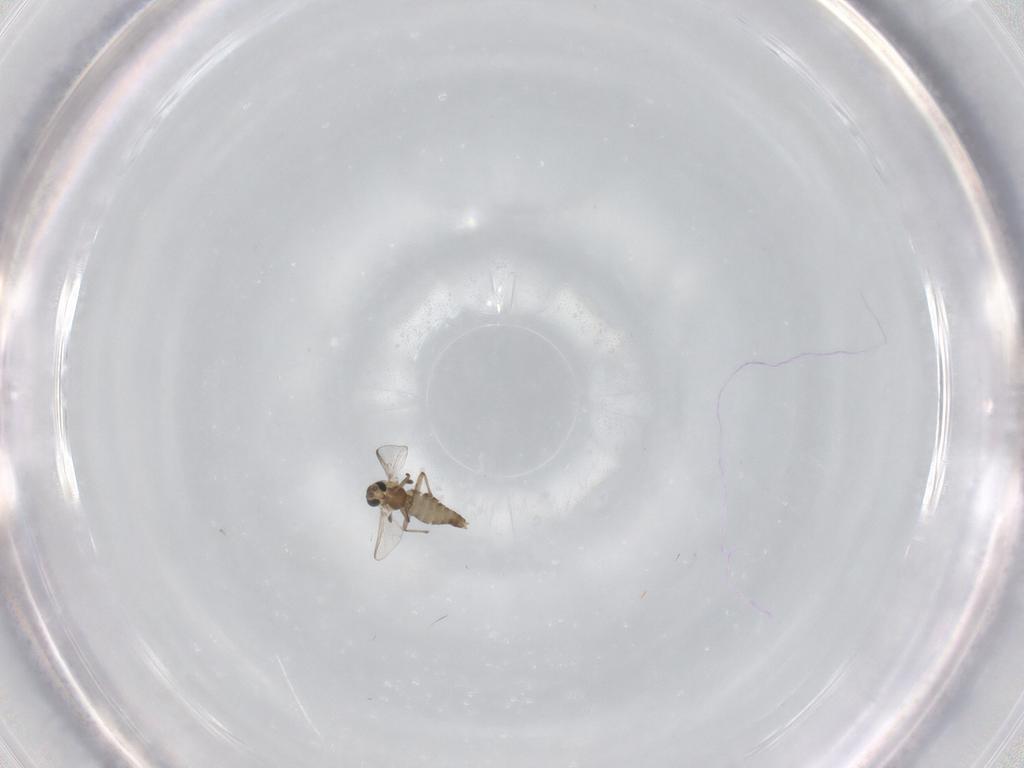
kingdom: Animalia
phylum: Arthropoda
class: Insecta
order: Diptera
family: Chironomidae
